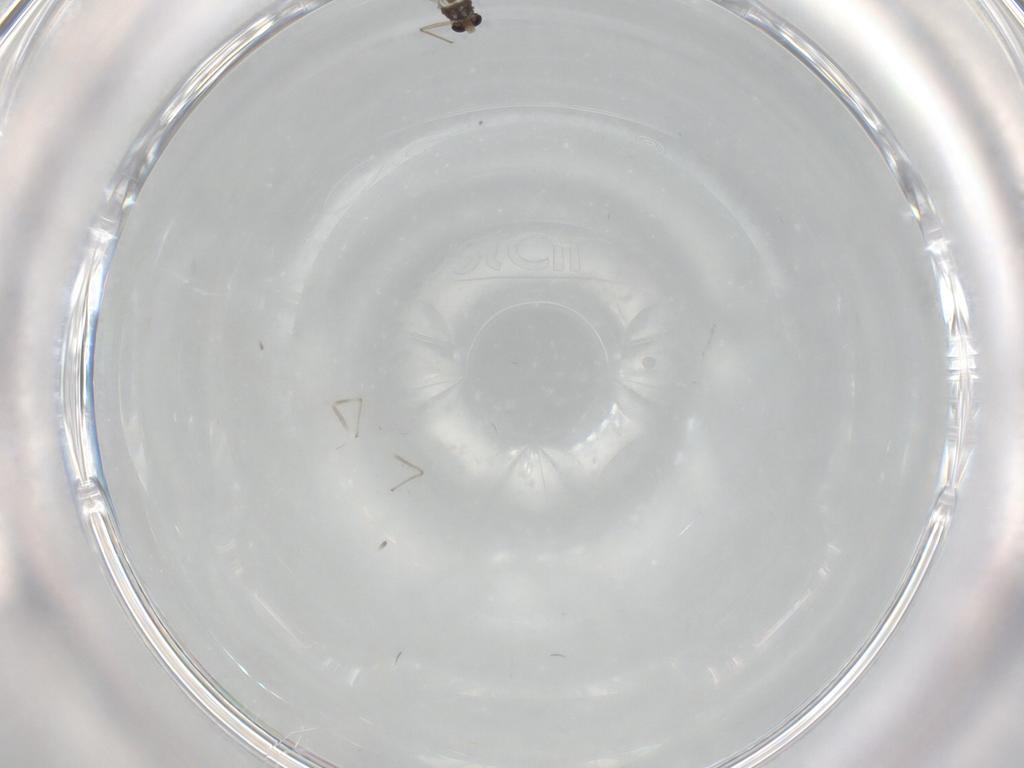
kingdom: Animalia
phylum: Arthropoda
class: Insecta
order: Diptera
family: Chironomidae
